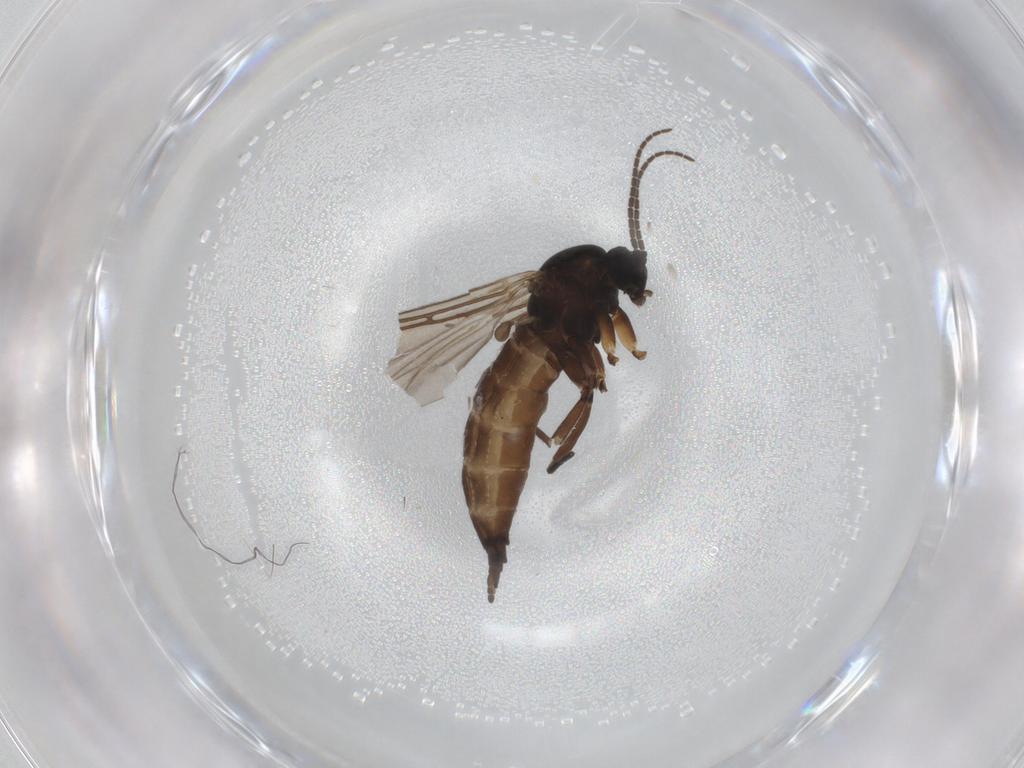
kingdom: Animalia
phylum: Arthropoda
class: Insecta
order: Diptera
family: Sciaridae
